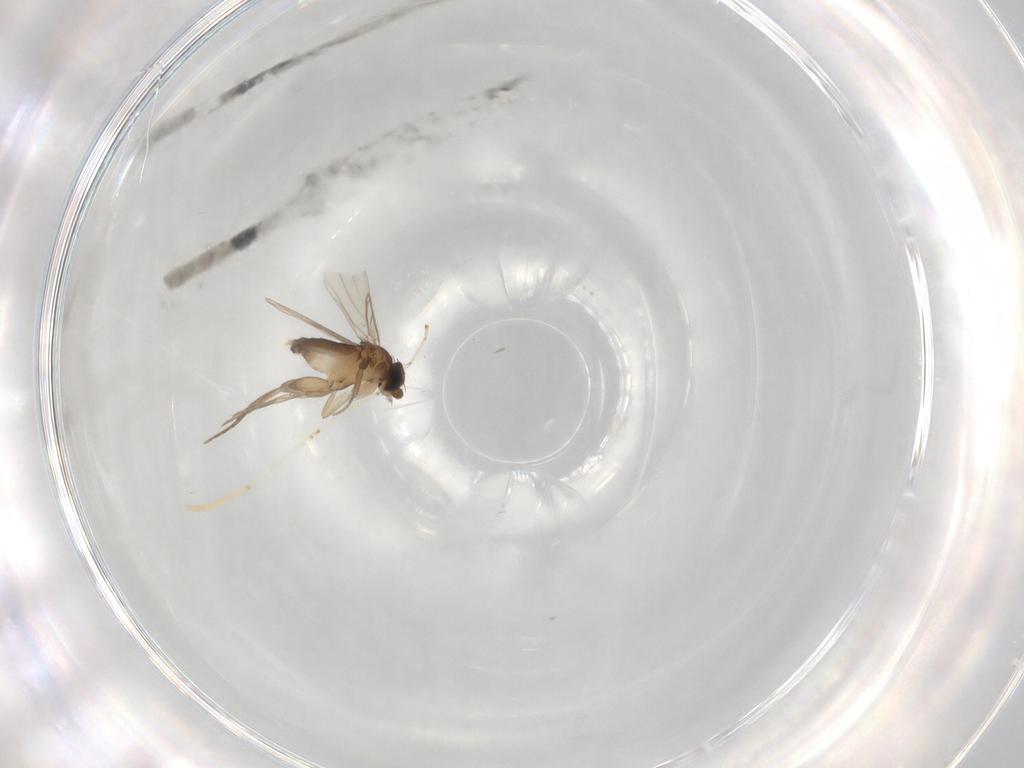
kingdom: Animalia
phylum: Arthropoda
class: Insecta
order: Diptera
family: Cecidomyiidae
